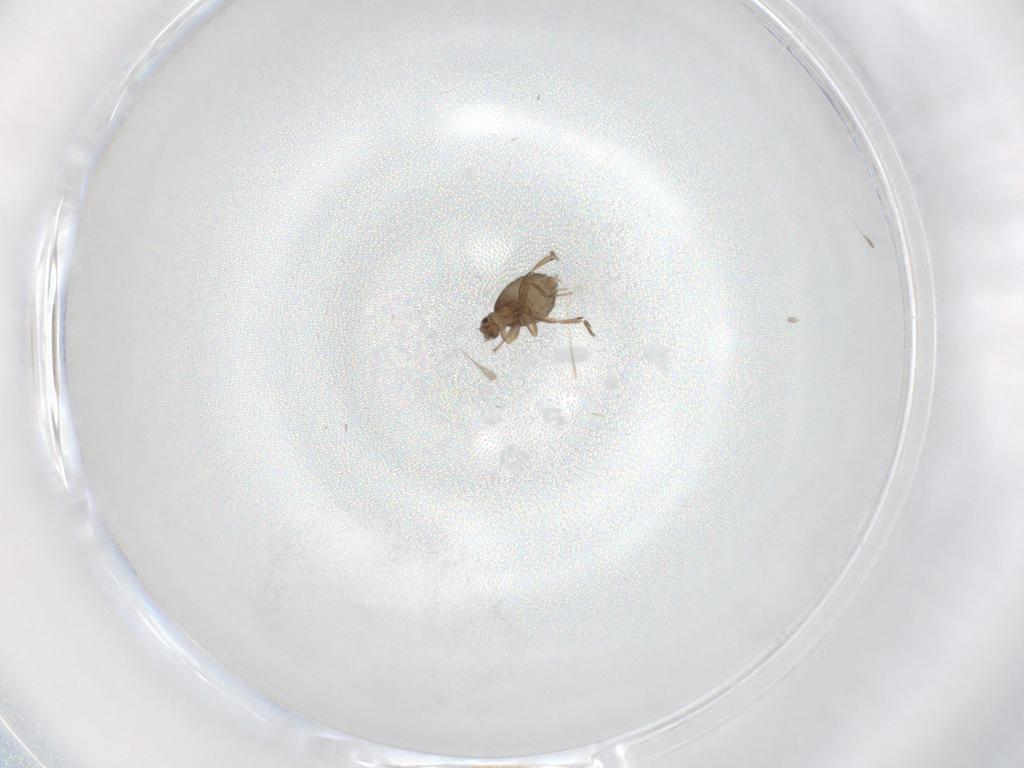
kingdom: Animalia
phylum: Arthropoda
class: Insecta
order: Diptera
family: Phoridae
